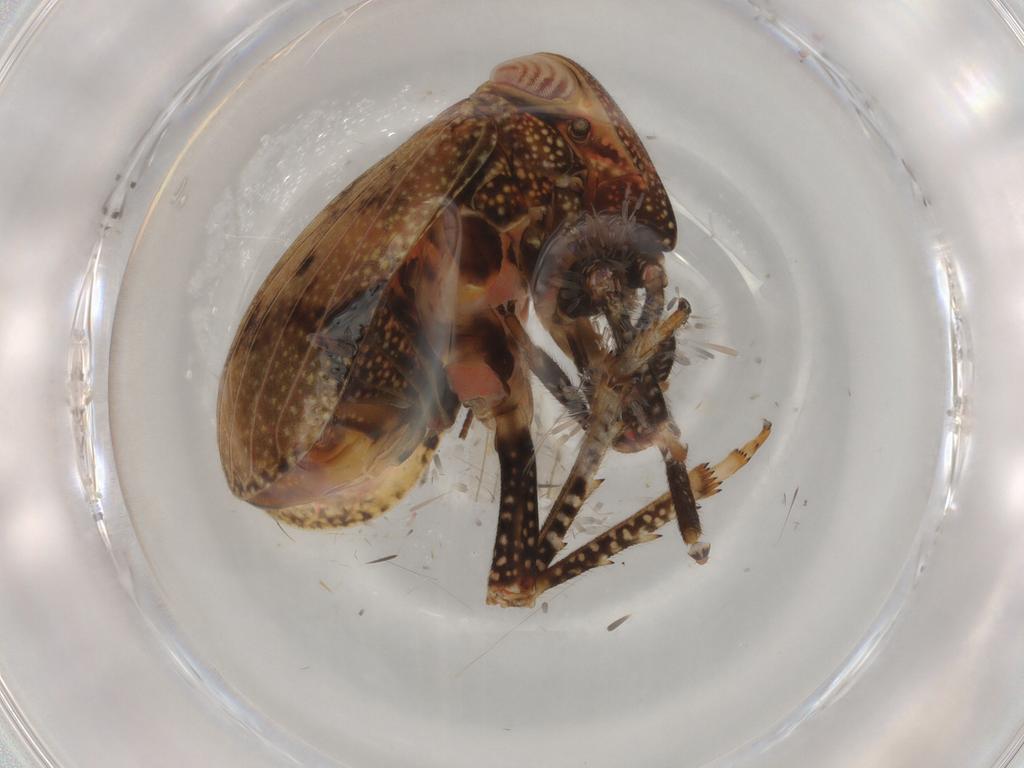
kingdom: Animalia
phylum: Arthropoda
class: Insecta
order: Hemiptera
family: Tropiduchidae
